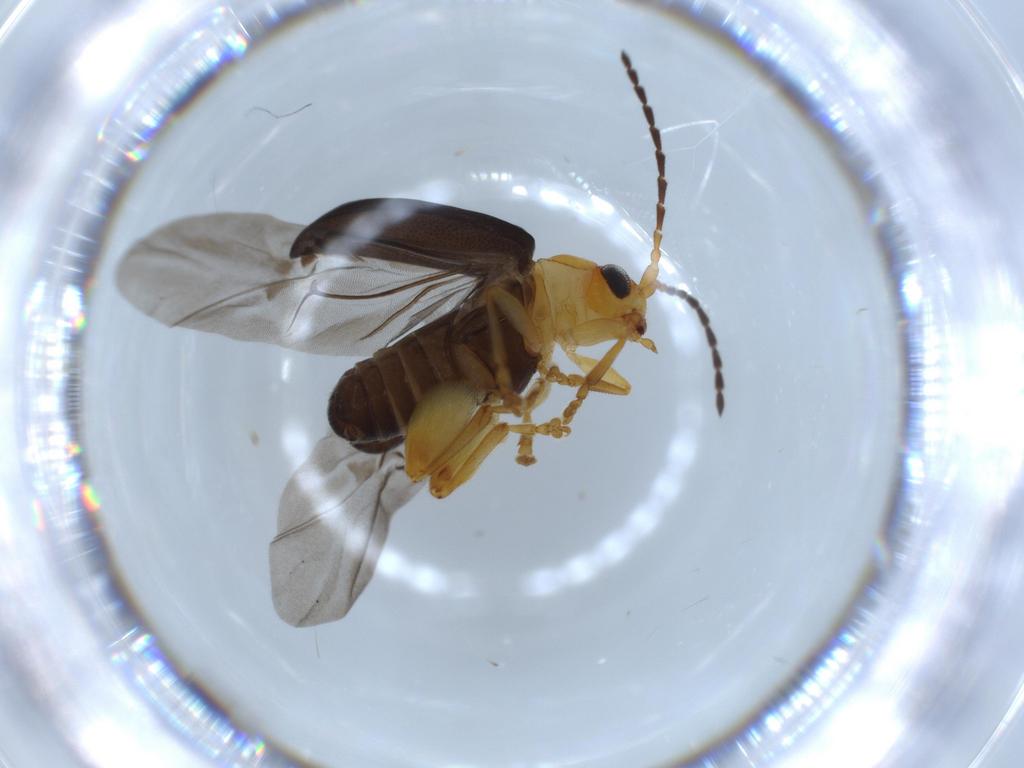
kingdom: Animalia
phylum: Arthropoda
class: Insecta
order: Coleoptera
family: Chrysomelidae
